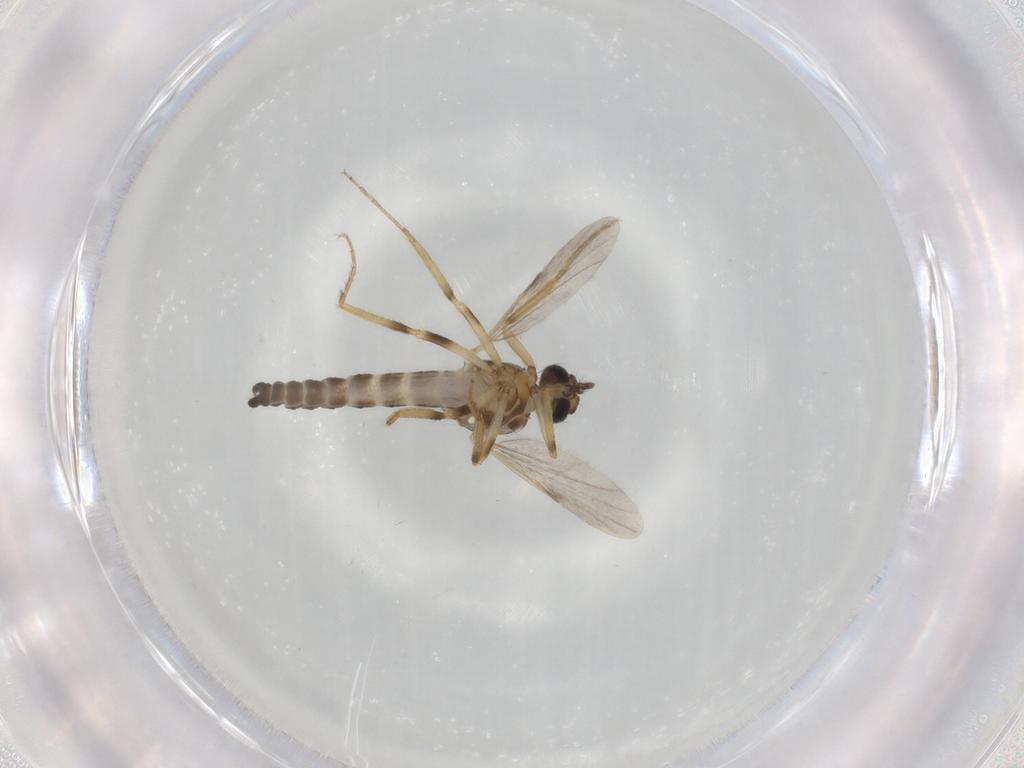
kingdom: Animalia
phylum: Arthropoda
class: Insecta
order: Diptera
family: Ceratopogonidae
